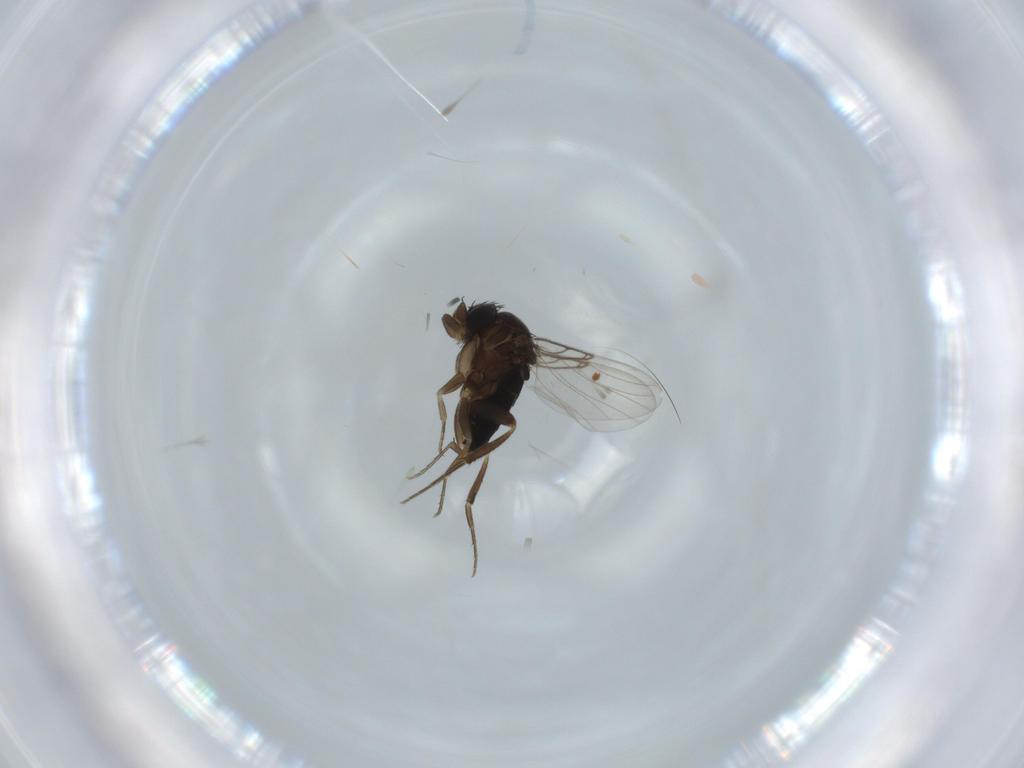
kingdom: Animalia
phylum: Arthropoda
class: Insecta
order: Diptera
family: Phoridae
